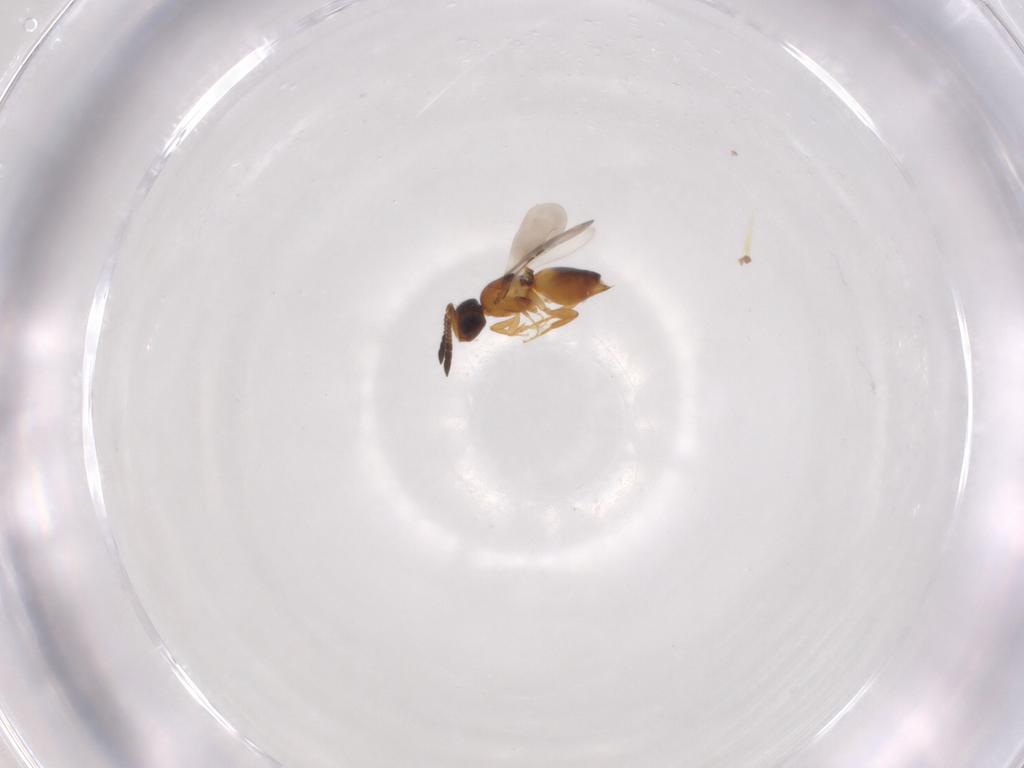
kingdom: Animalia
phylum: Arthropoda
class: Insecta
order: Hymenoptera
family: Ceraphronidae
